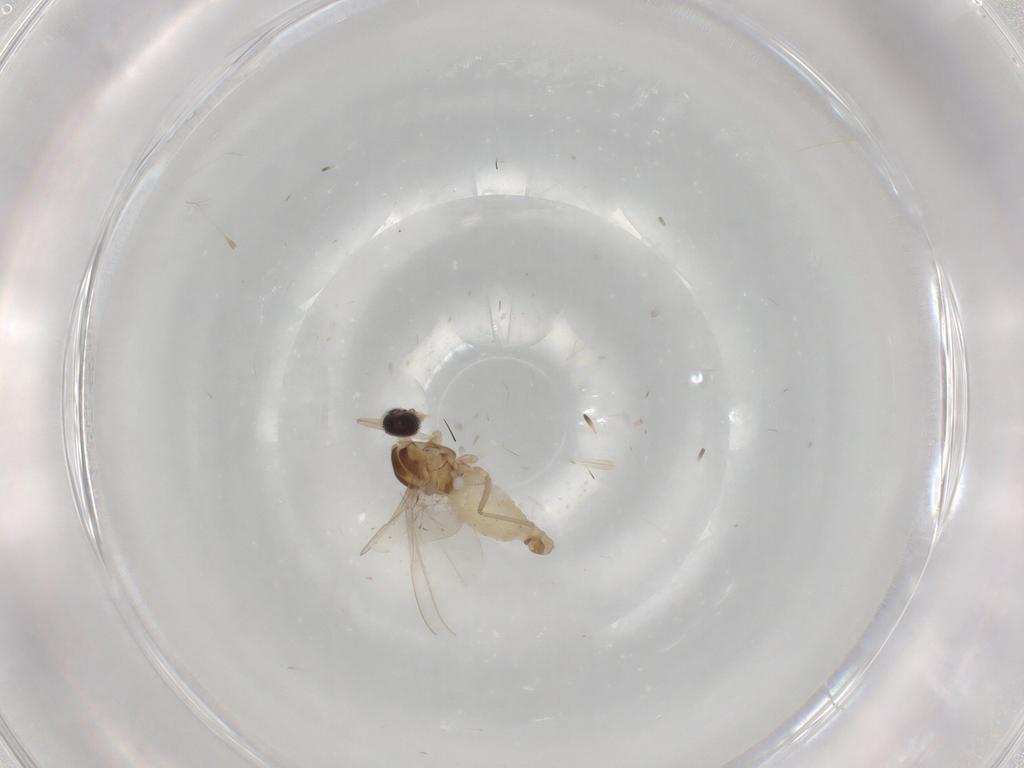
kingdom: Animalia
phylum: Arthropoda
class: Insecta
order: Diptera
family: Cecidomyiidae
